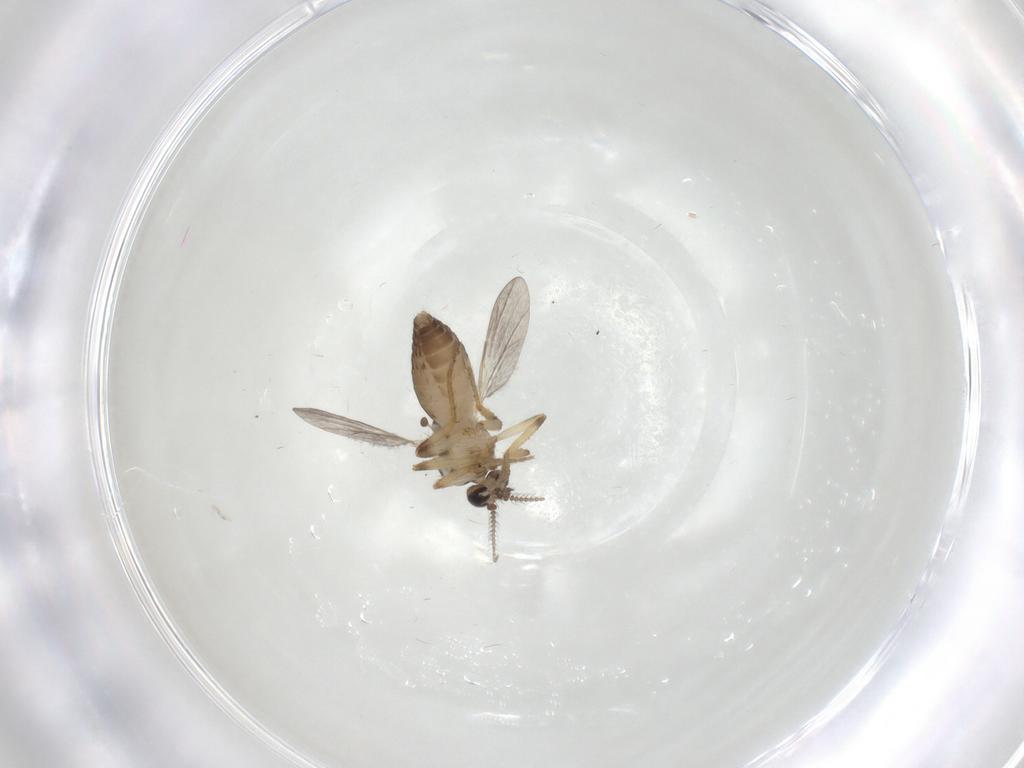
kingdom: Animalia
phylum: Arthropoda
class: Insecta
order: Diptera
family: Ceratopogonidae
